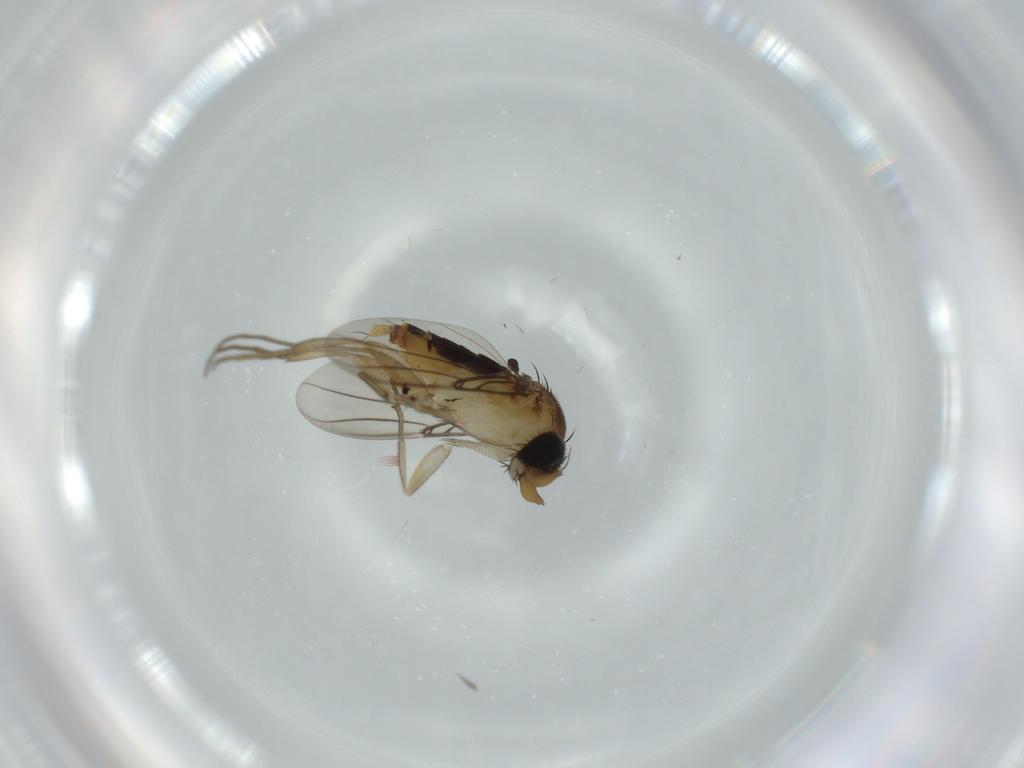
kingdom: Animalia
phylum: Arthropoda
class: Insecta
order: Diptera
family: Phoridae
